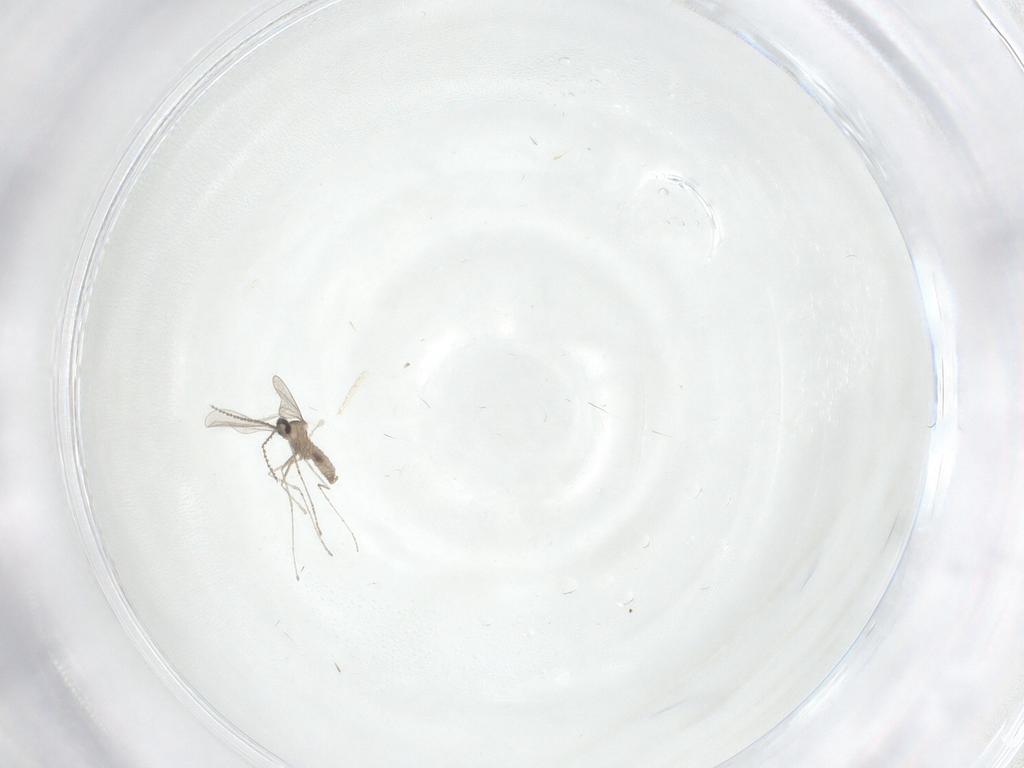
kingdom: Animalia
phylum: Arthropoda
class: Insecta
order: Diptera
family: Cecidomyiidae
